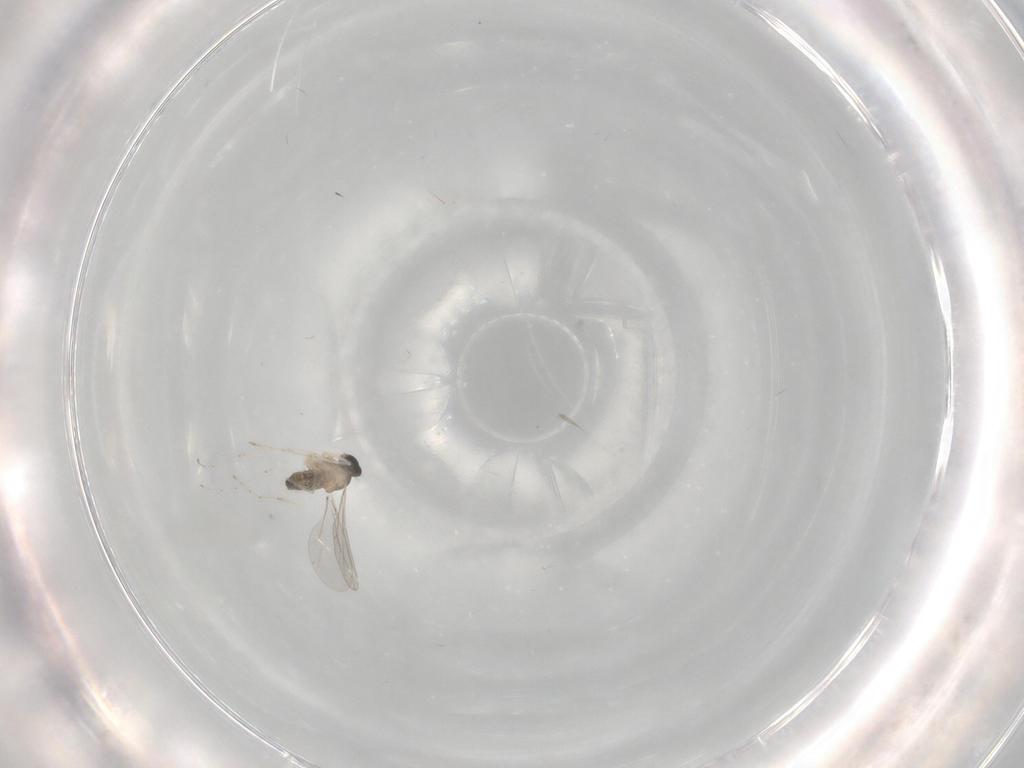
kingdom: Animalia
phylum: Arthropoda
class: Insecta
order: Diptera
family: Cecidomyiidae
